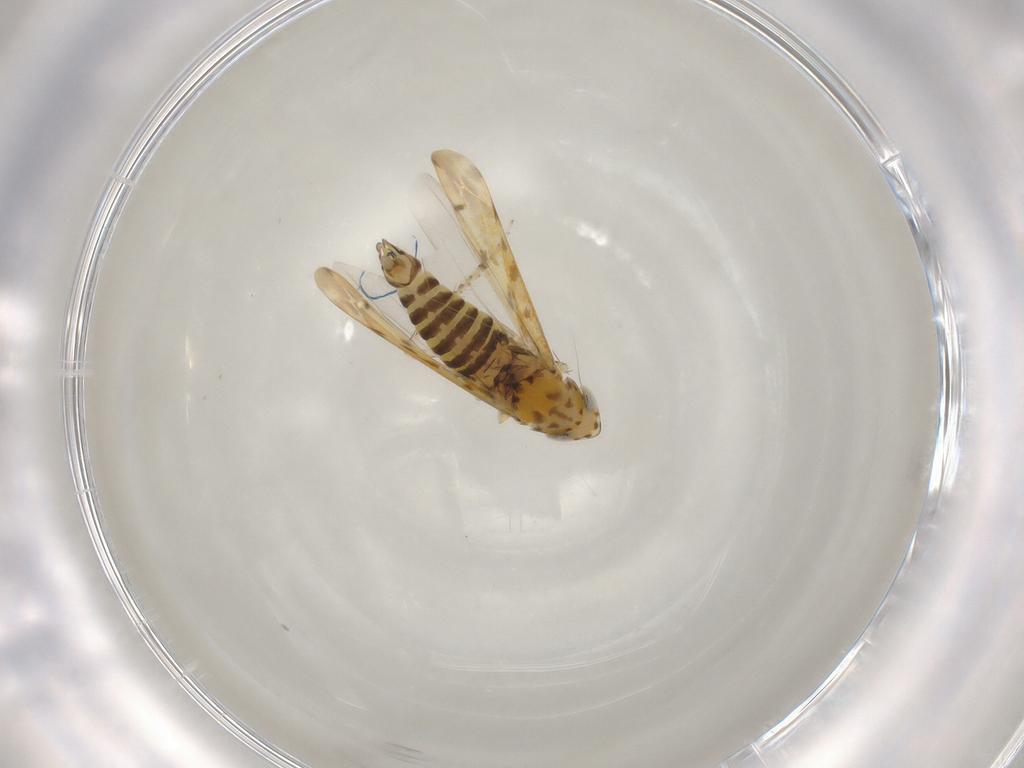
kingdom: Animalia
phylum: Arthropoda
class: Insecta
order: Hemiptera
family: Cicadellidae
